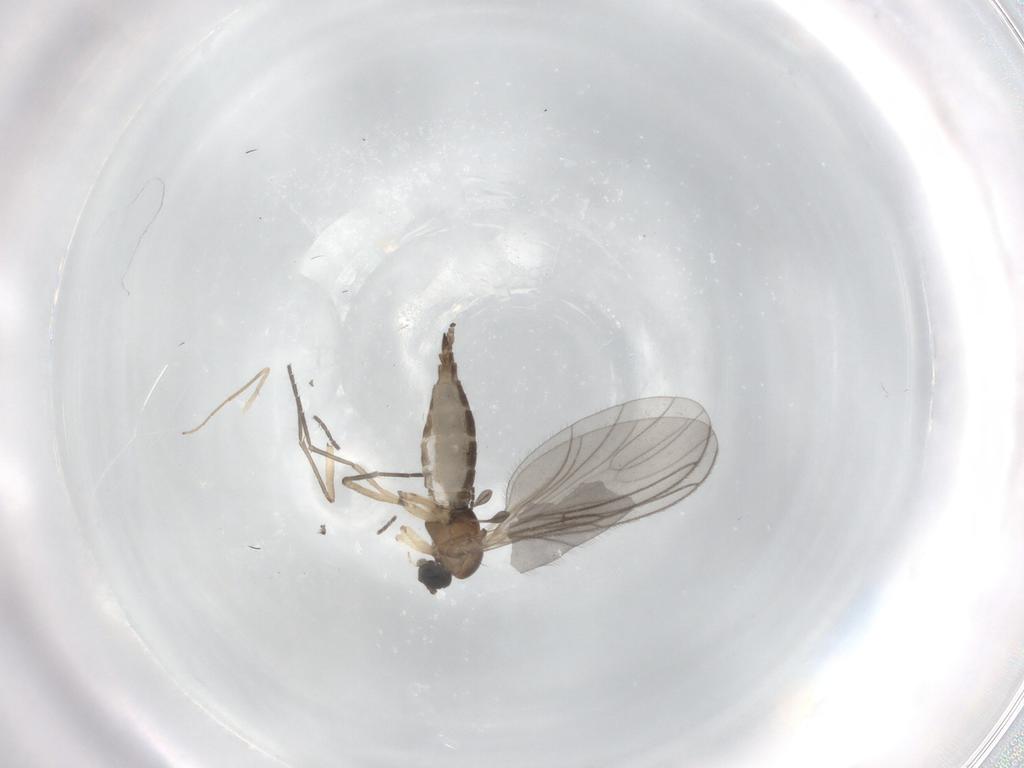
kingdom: Animalia
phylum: Arthropoda
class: Insecta
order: Diptera
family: Sciaridae
